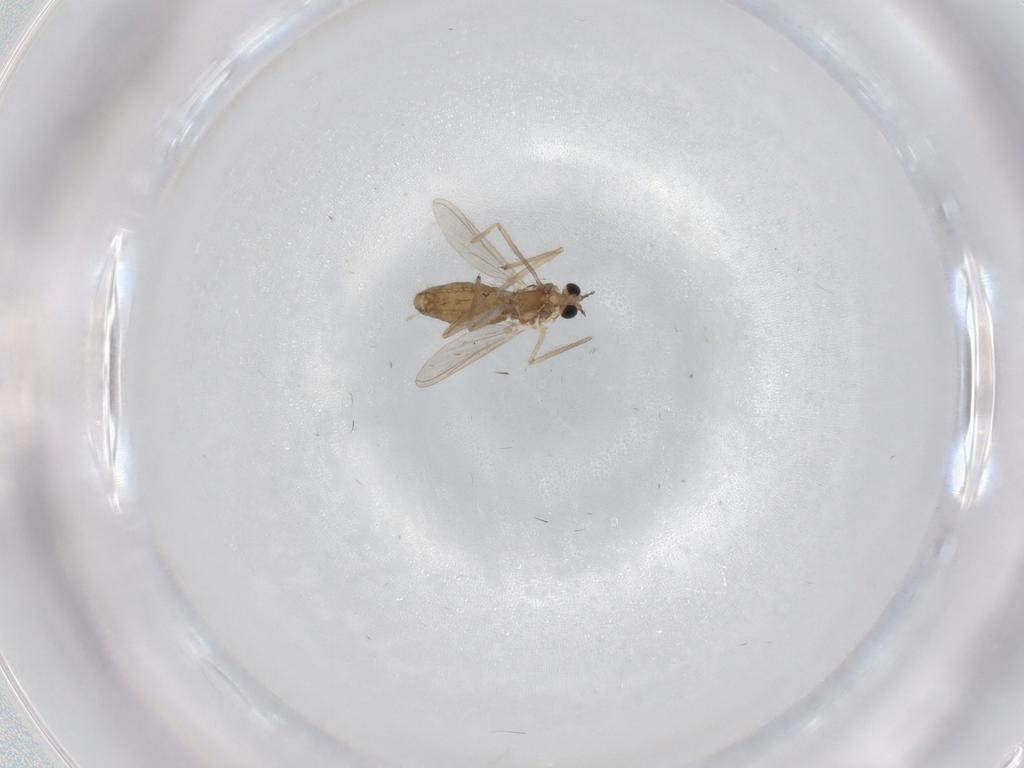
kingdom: Animalia
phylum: Arthropoda
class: Insecta
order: Diptera
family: Chironomidae
